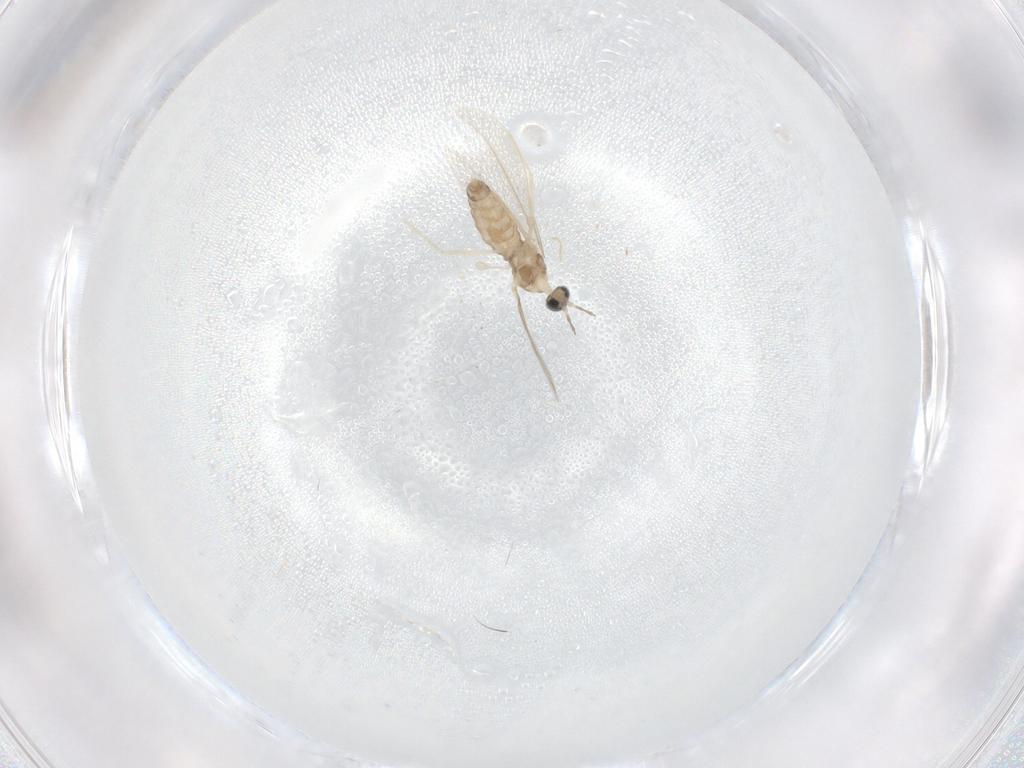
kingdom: Animalia
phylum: Arthropoda
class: Insecta
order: Diptera
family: Cecidomyiidae
